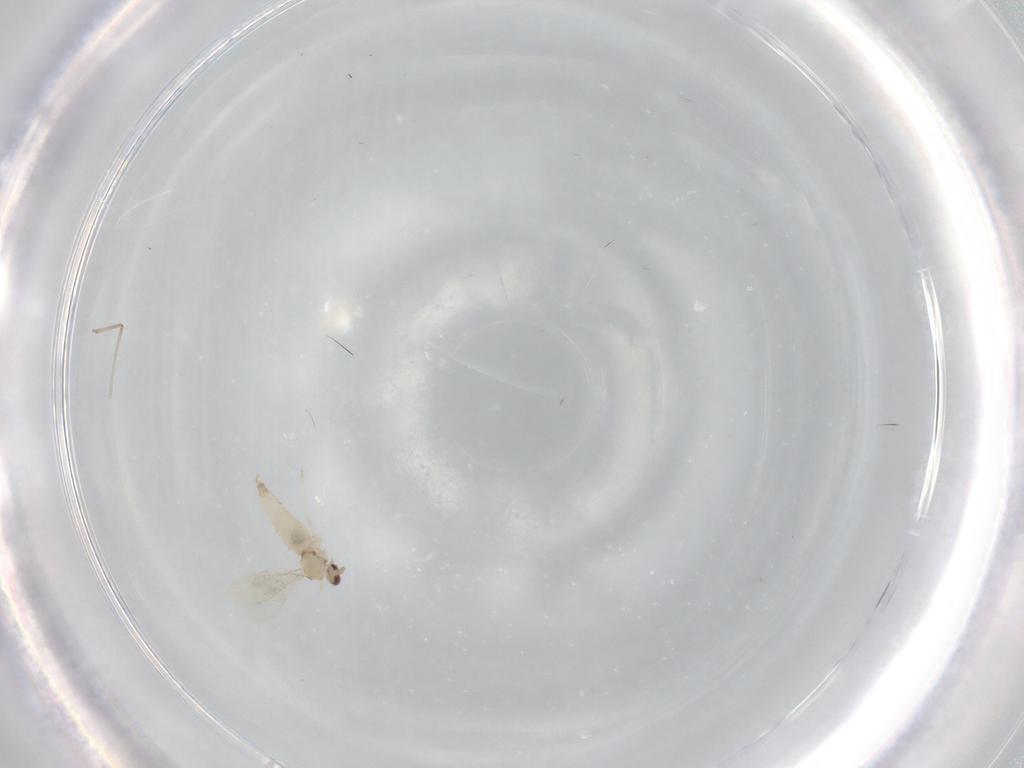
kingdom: Animalia
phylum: Arthropoda
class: Insecta
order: Diptera
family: Cecidomyiidae
